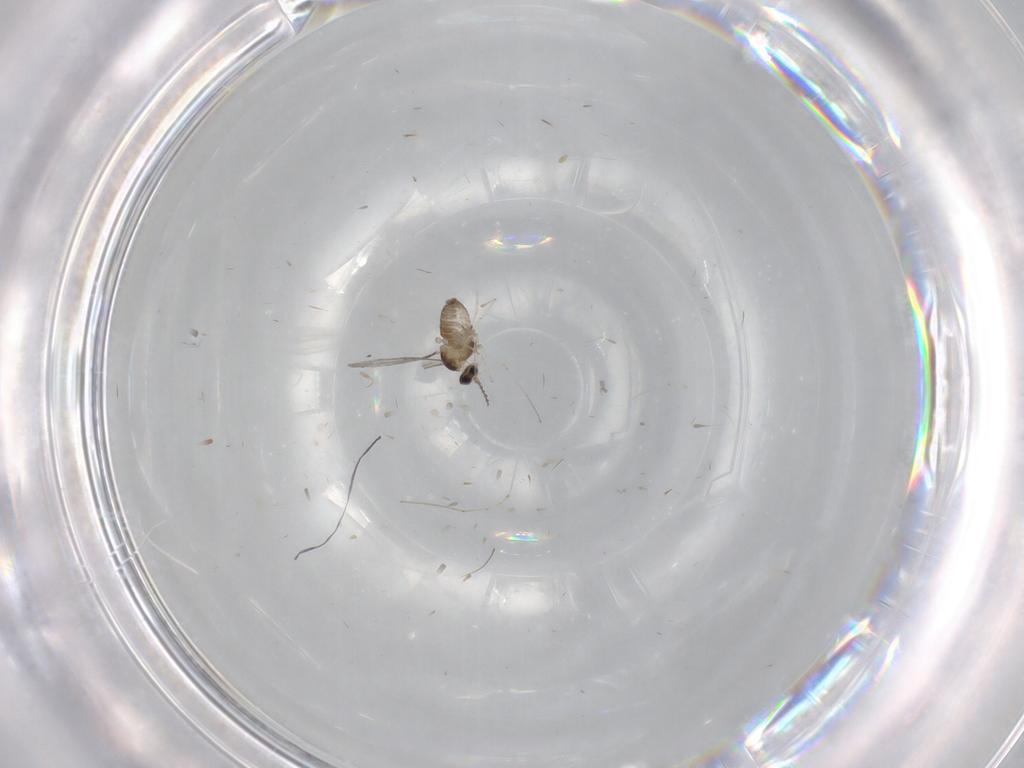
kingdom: Animalia
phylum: Arthropoda
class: Insecta
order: Diptera
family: Cecidomyiidae
